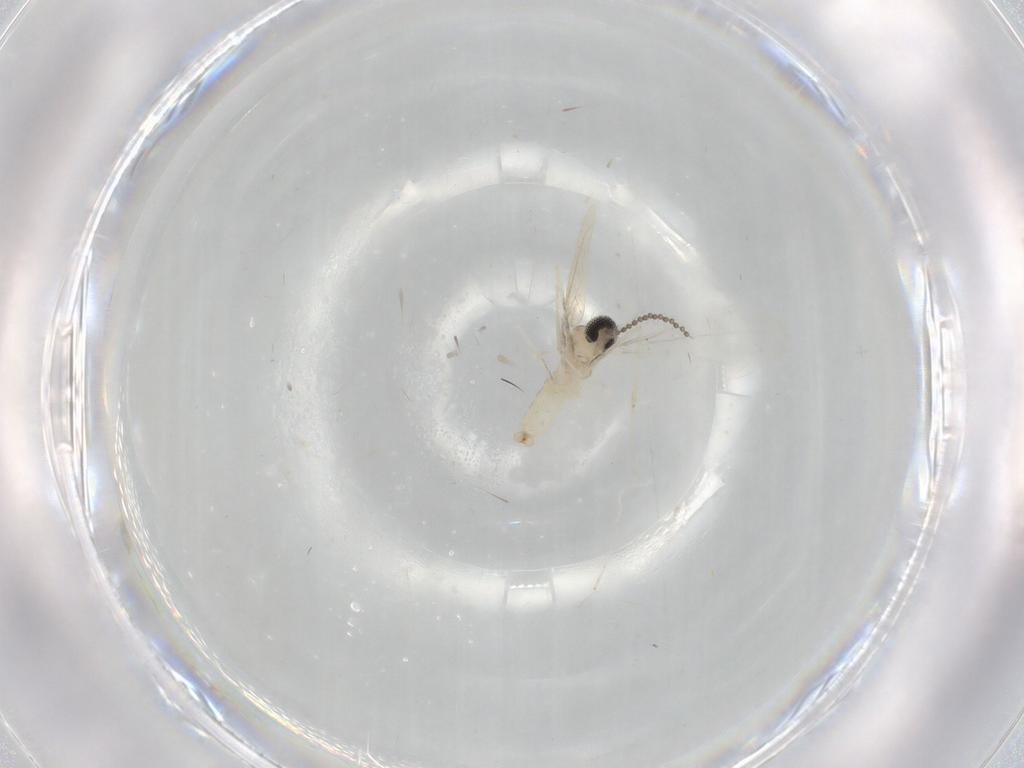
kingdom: Animalia
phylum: Arthropoda
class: Insecta
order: Diptera
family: Cecidomyiidae
